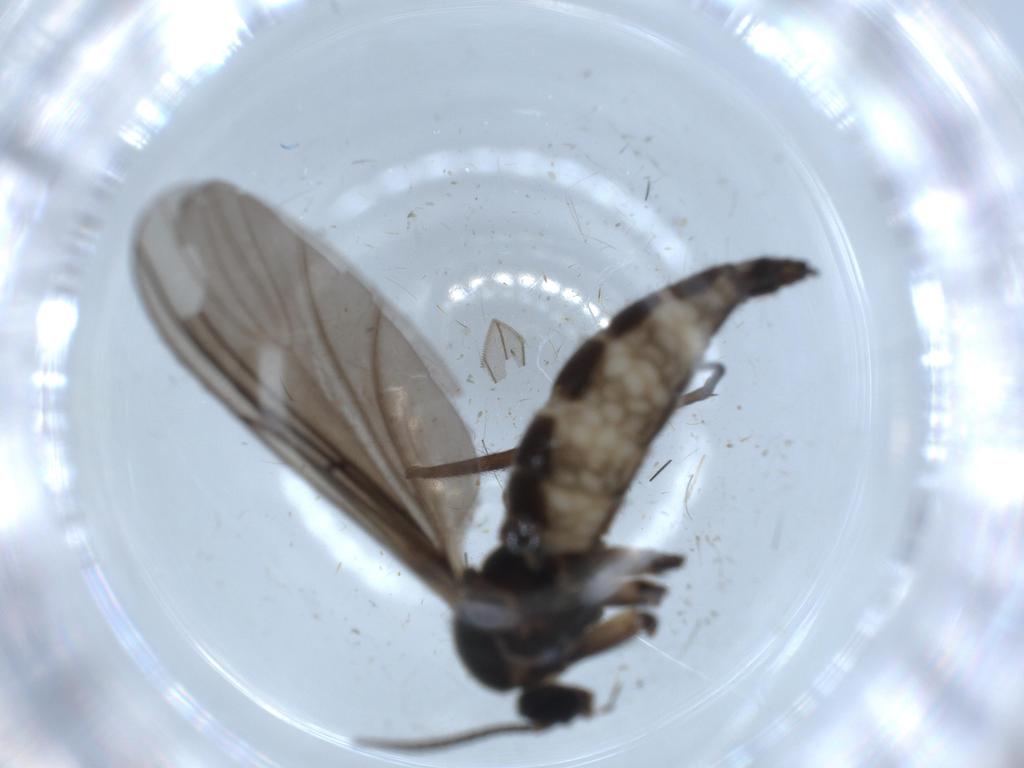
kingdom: Animalia
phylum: Arthropoda
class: Insecta
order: Diptera
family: Sciaridae
